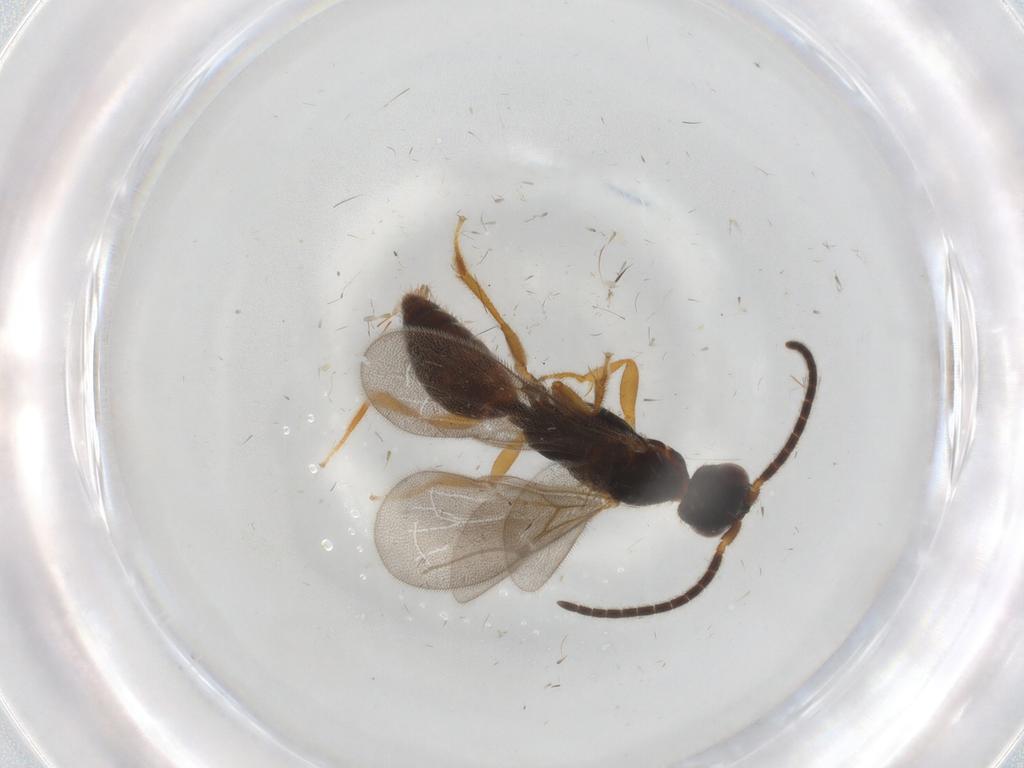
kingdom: Animalia
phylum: Arthropoda
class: Insecta
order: Hymenoptera
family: Bethylidae
